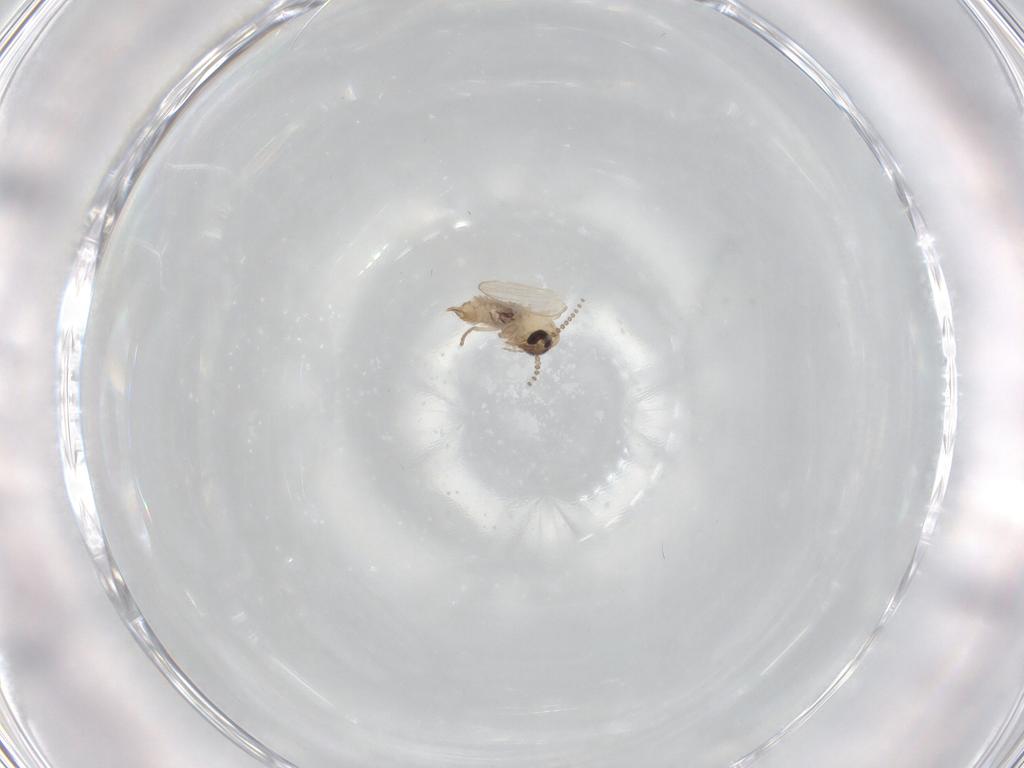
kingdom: Animalia
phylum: Arthropoda
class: Insecta
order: Diptera
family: Psychodidae
